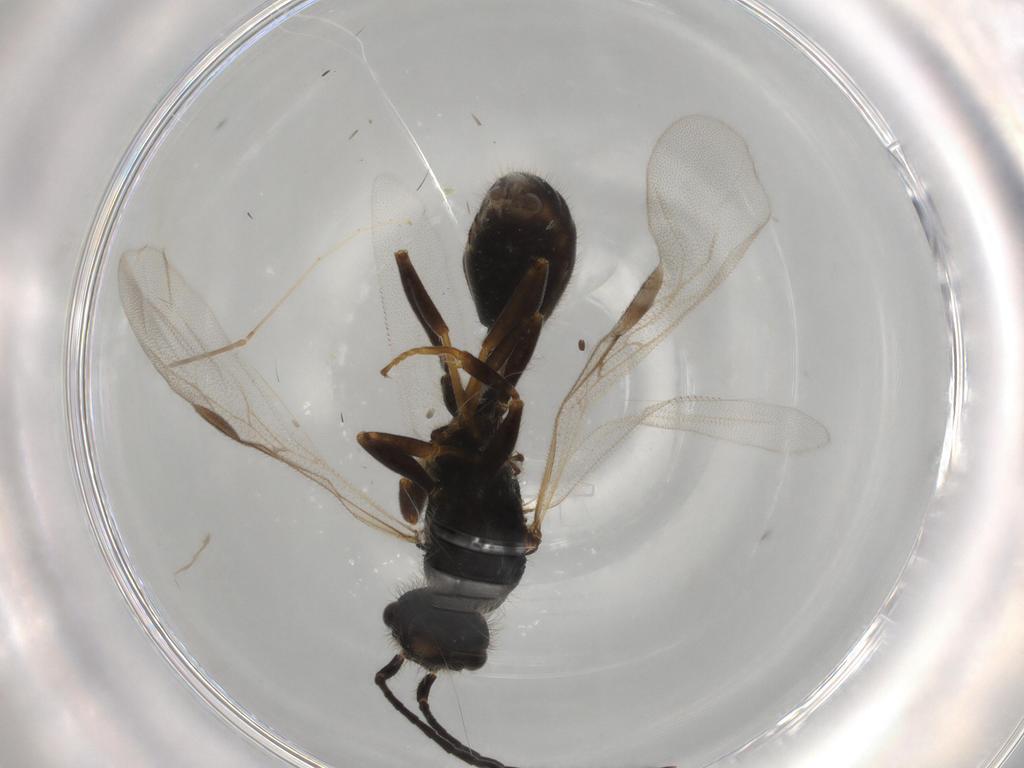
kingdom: Animalia
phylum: Arthropoda
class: Insecta
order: Hymenoptera
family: Formicidae
